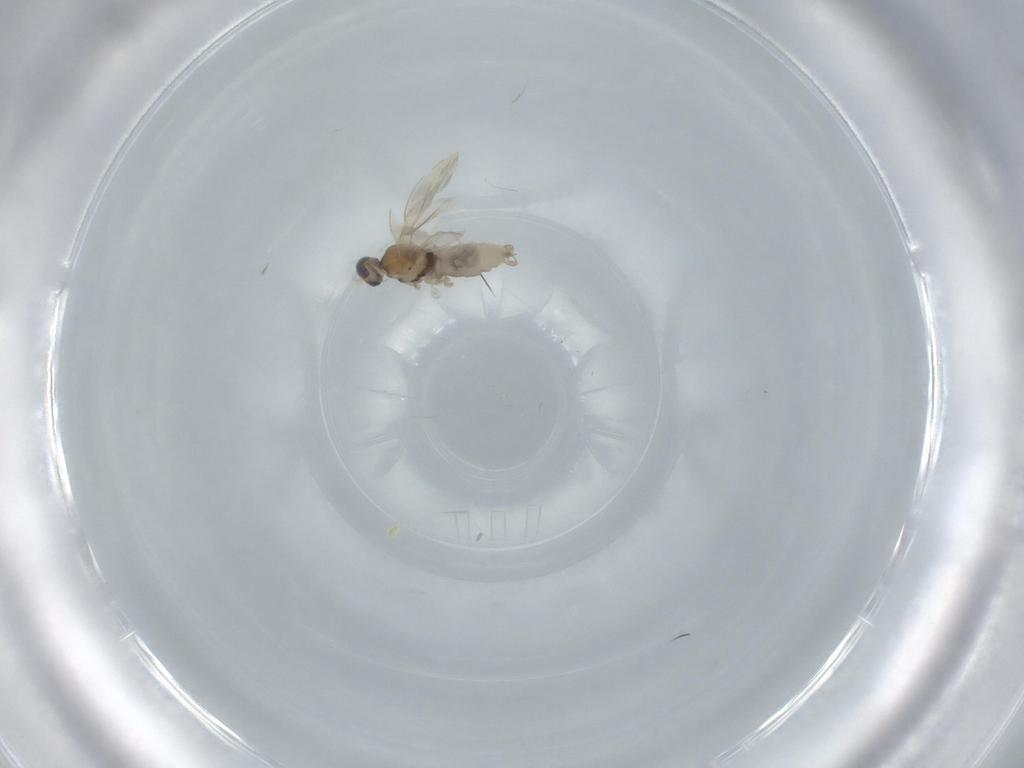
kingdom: Animalia
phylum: Arthropoda
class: Insecta
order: Diptera
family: Cecidomyiidae
